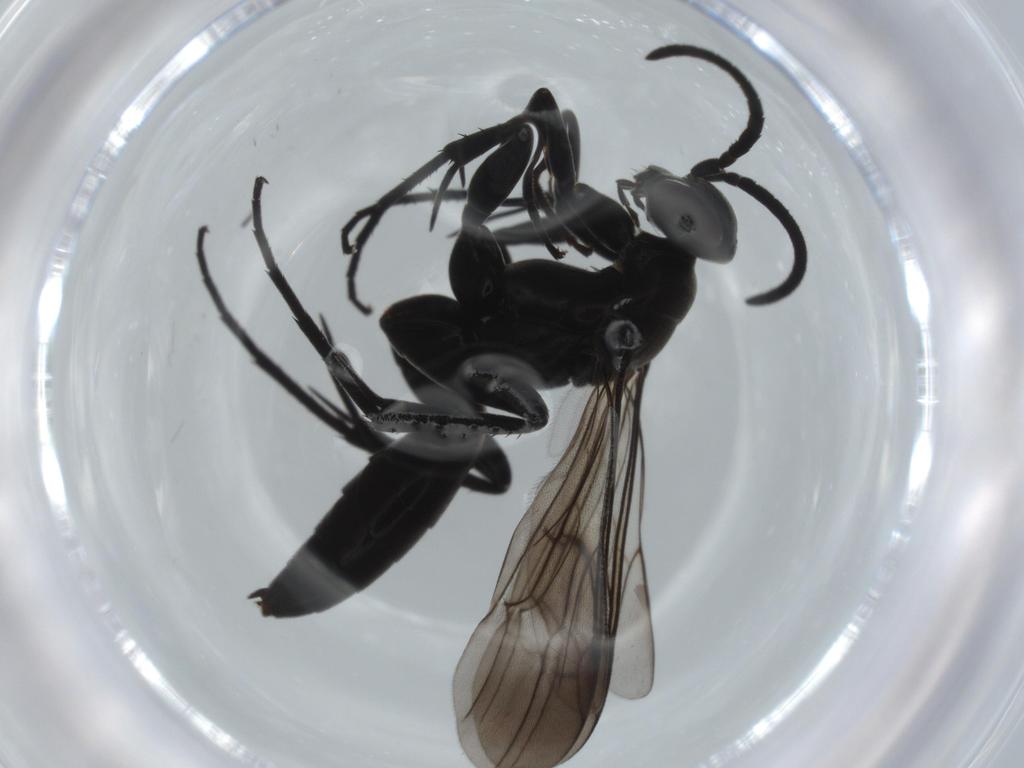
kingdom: Animalia
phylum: Arthropoda
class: Insecta
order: Hymenoptera
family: Pompilidae
